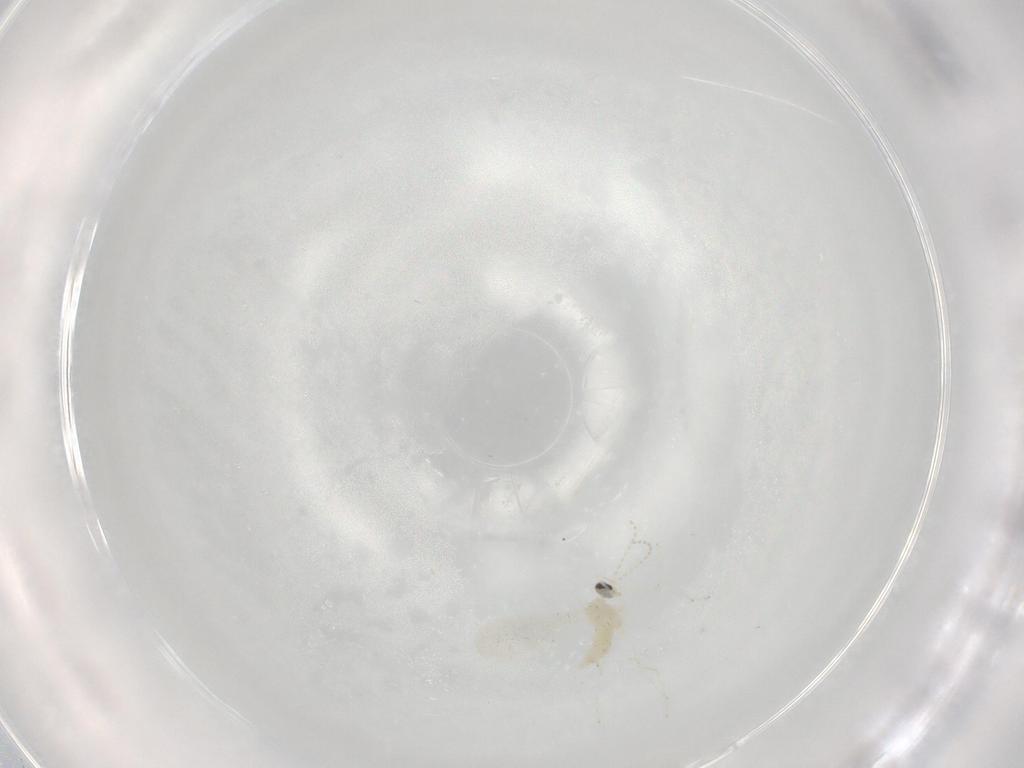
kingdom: Animalia
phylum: Arthropoda
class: Insecta
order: Diptera
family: Cecidomyiidae
